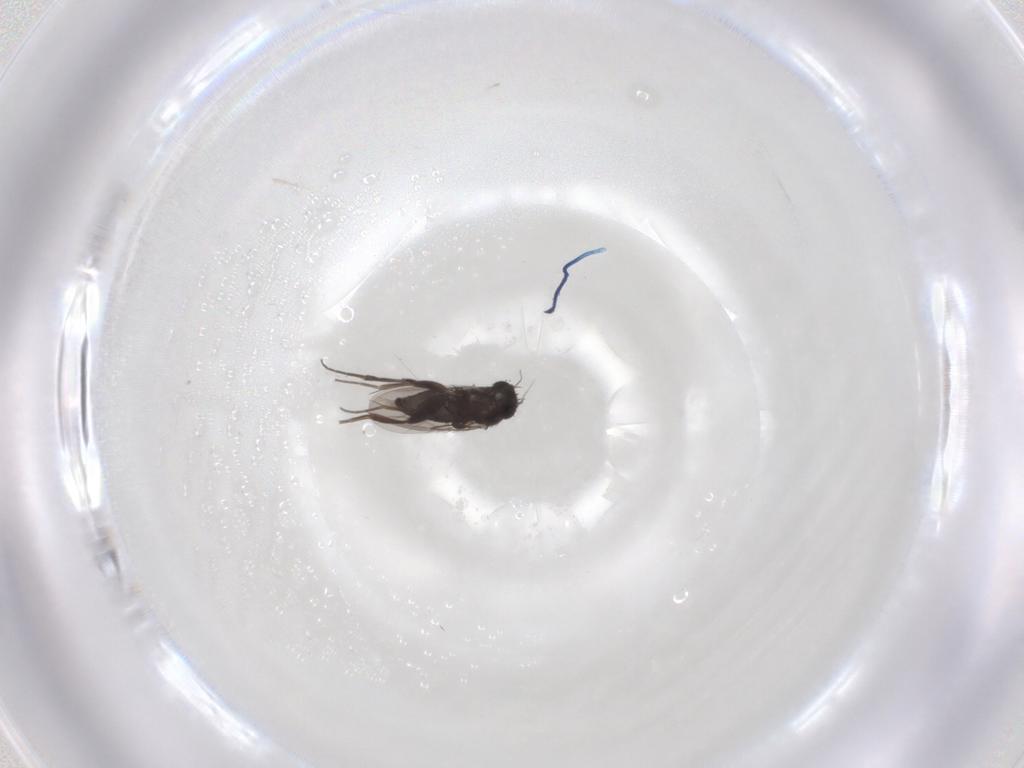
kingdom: Animalia
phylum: Arthropoda
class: Insecta
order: Diptera
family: Phoridae
